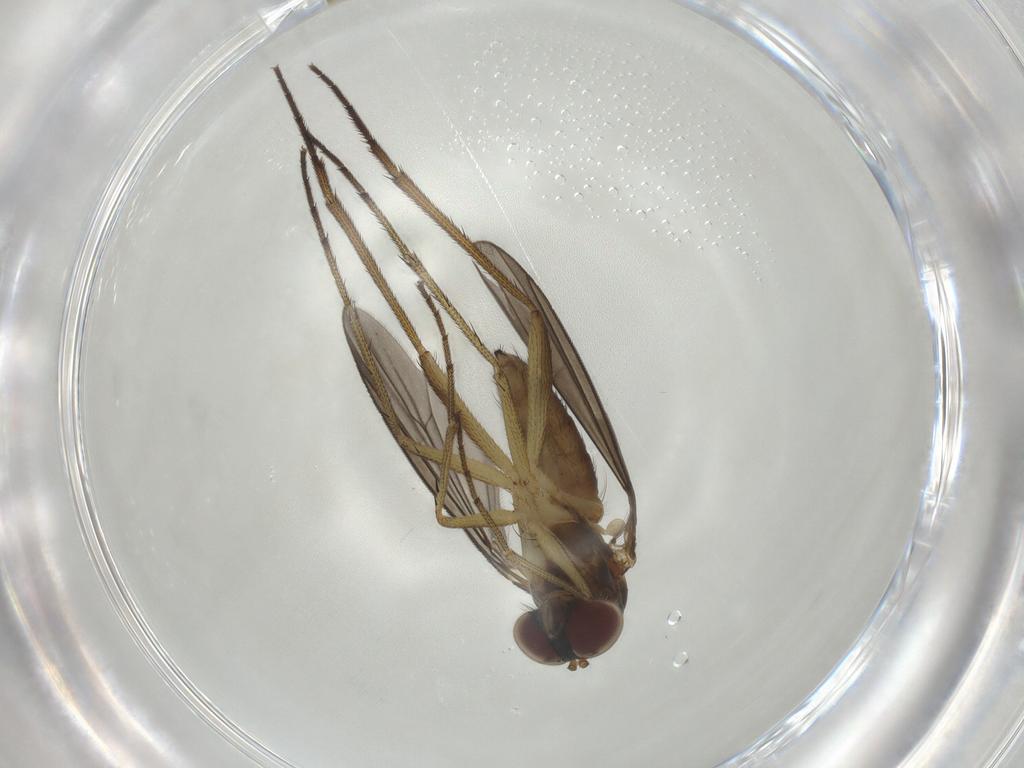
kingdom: Animalia
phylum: Arthropoda
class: Insecta
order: Diptera
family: Dolichopodidae
